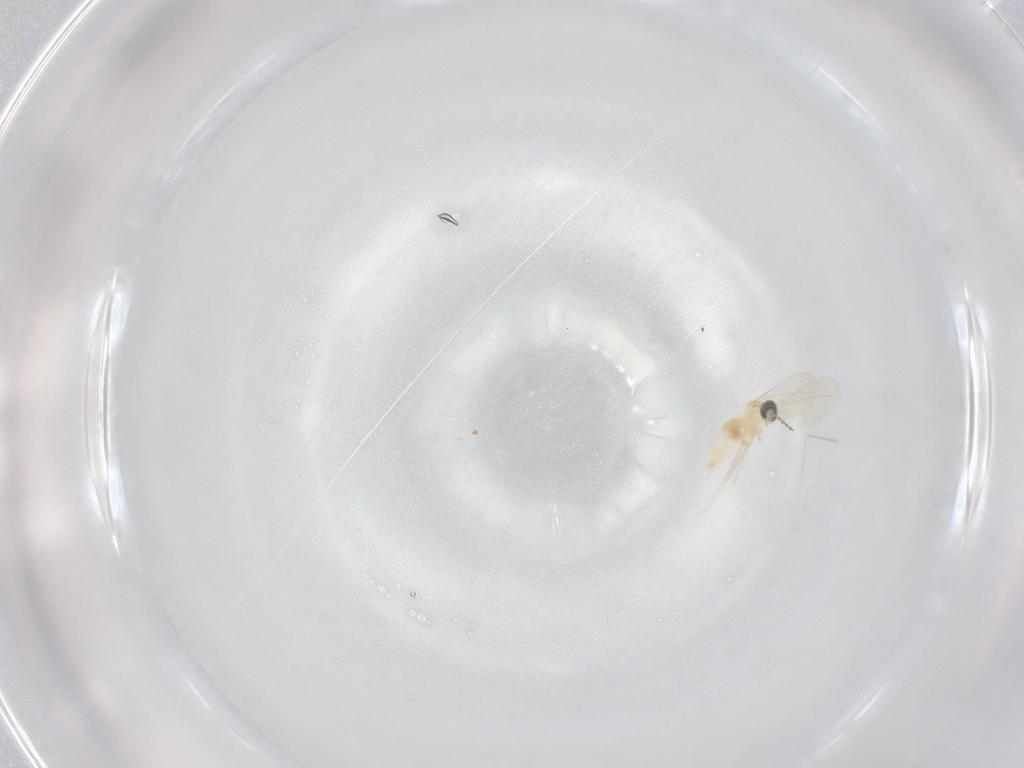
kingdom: Animalia
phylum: Arthropoda
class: Insecta
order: Diptera
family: Cecidomyiidae
